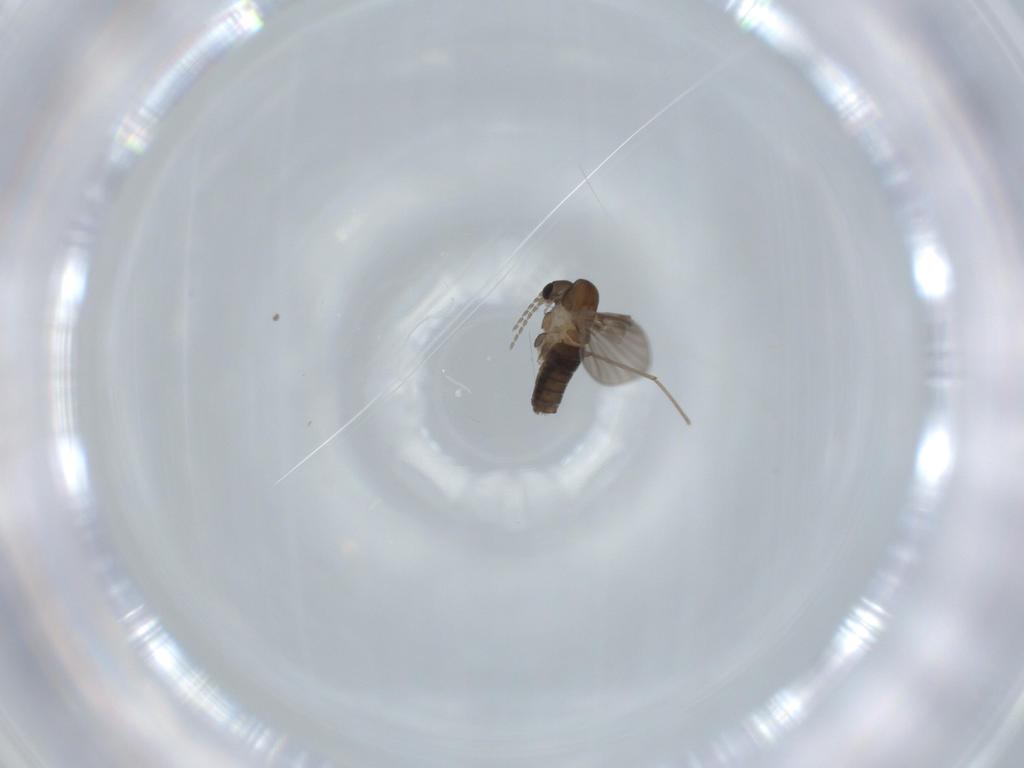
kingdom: Animalia
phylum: Arthropoda
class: Insecta
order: Diptera
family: Psychodidae
